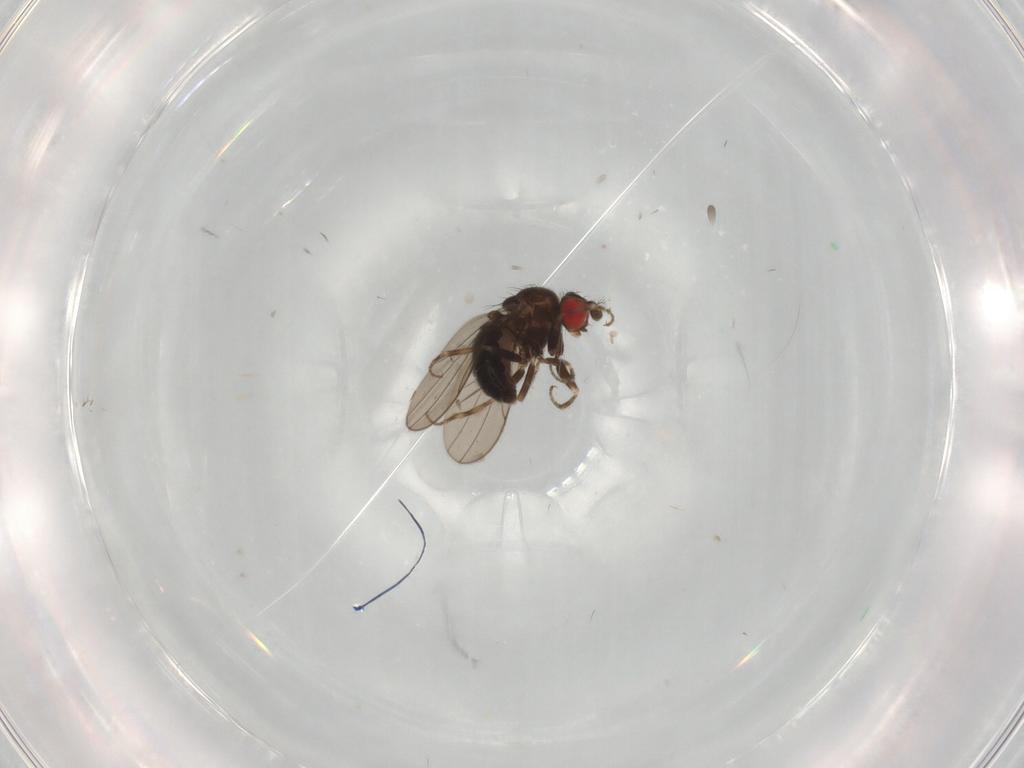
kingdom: Animalia
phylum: Arthropoda
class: Insecta
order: Diptera
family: Drosophilidae
